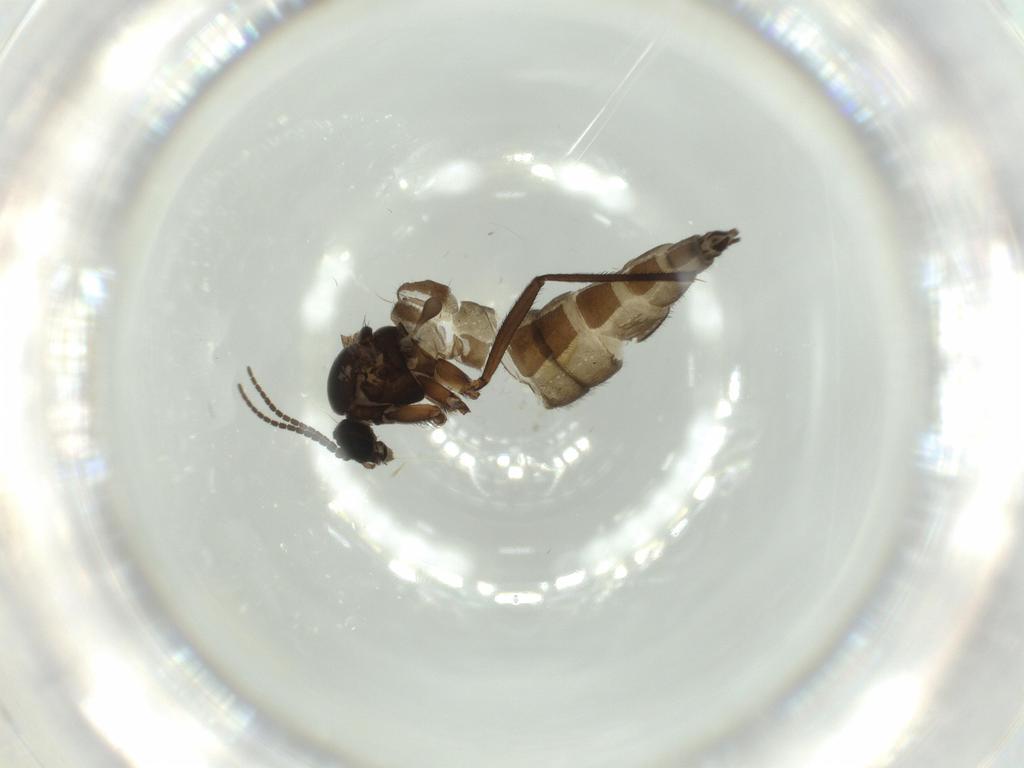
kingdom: Animalia
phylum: Arthropoda
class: Insecta
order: Diptera
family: Sciaridae
